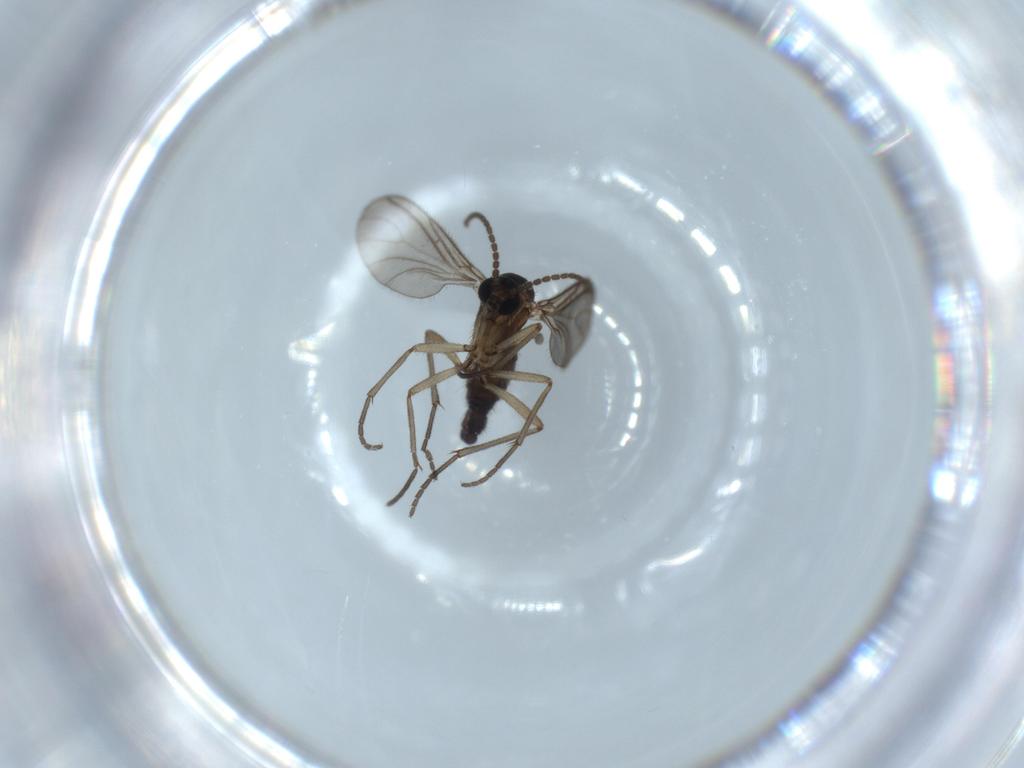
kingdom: Animalia
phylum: Arthropoda
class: Insecta
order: Diptera
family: Sciaridae
